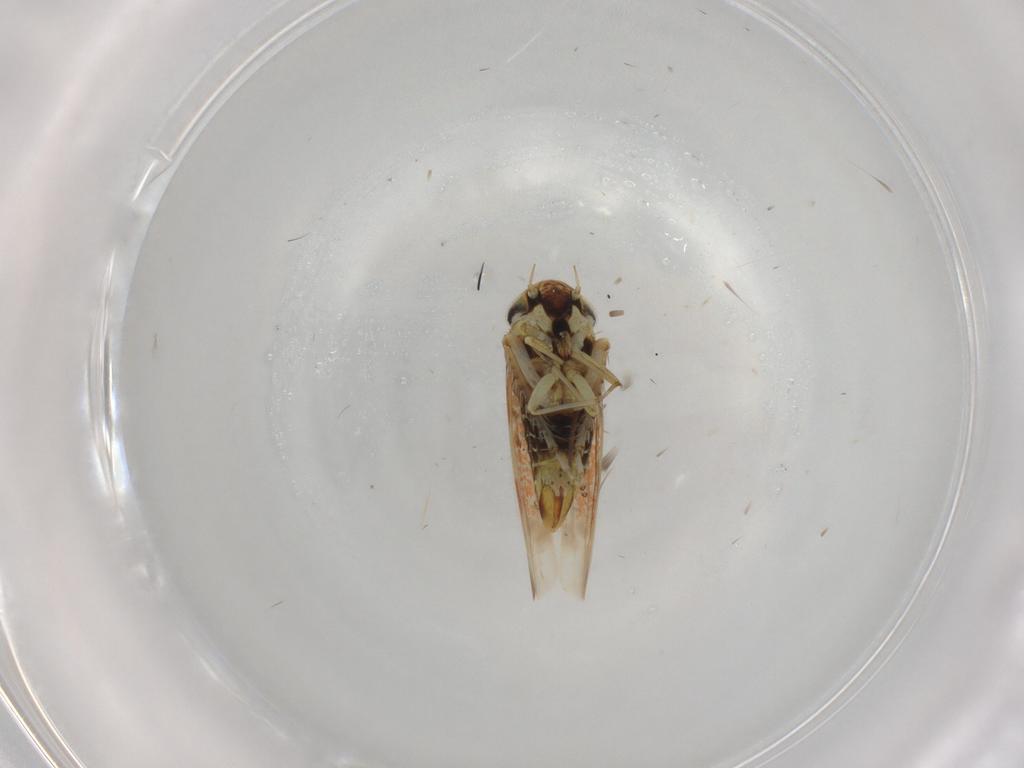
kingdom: Animalia
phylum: Arthropoda
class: Insecta
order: Hemiptera
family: Cicadellidae
